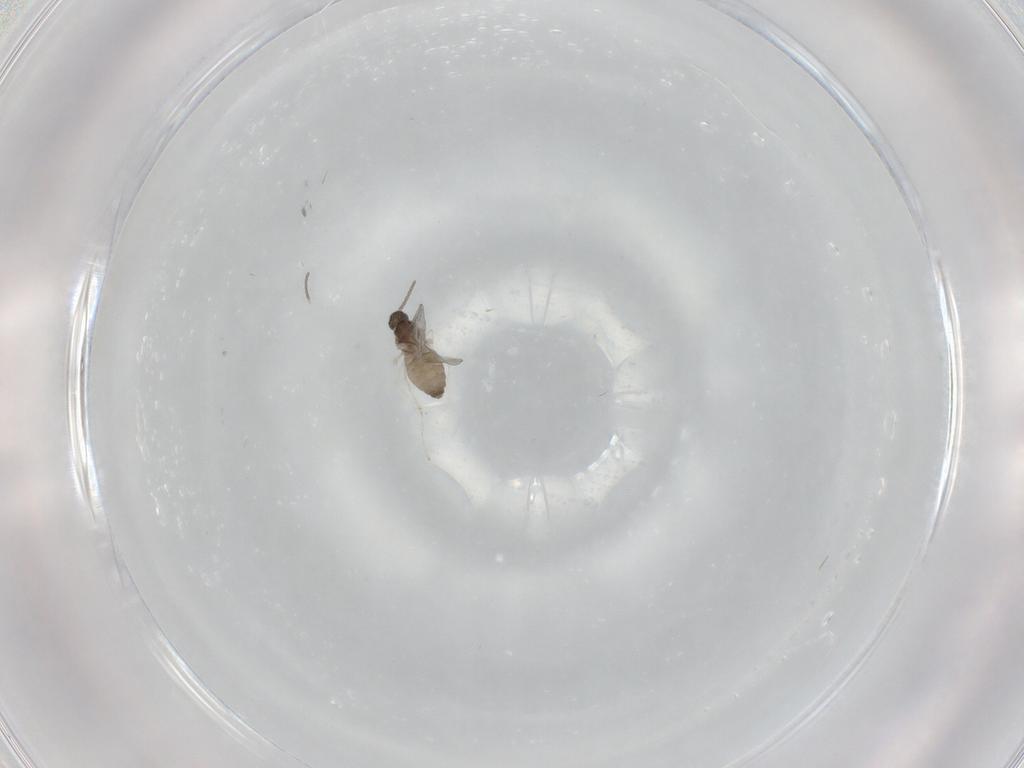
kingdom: Animalia
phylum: Arthropoda
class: Insecta
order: Diptera
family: Cecidomyiidae
